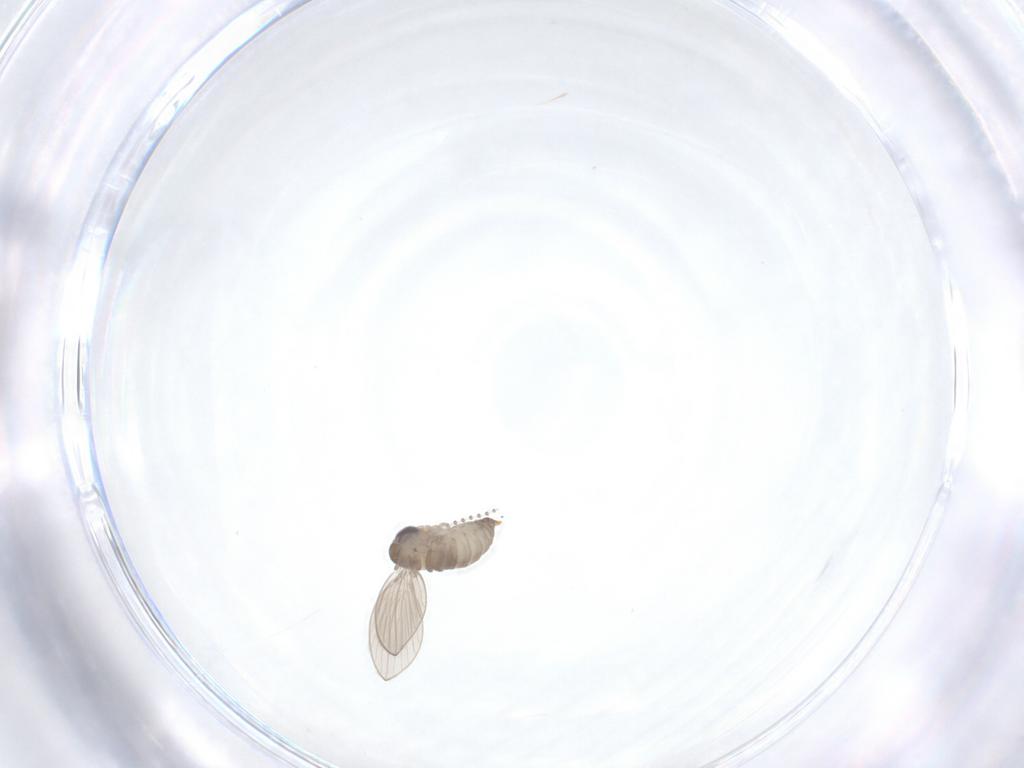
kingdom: Animalia
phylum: Arthropoda
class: Insecta
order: Diptera
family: Psychodidae
